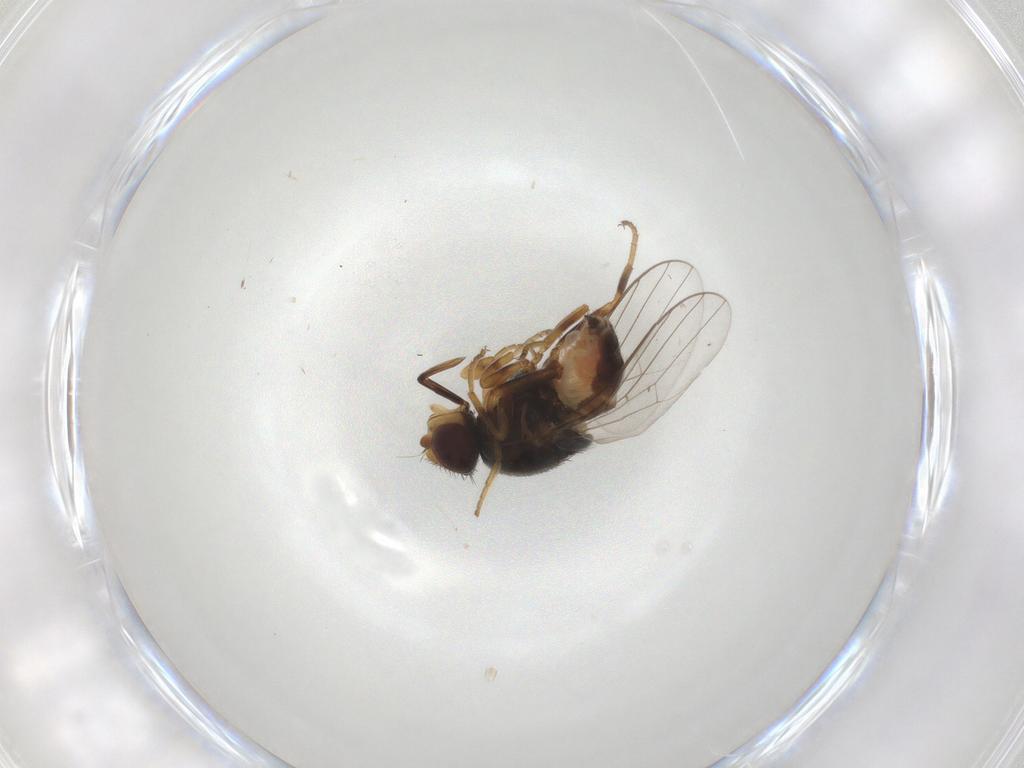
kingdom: Animalia
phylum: Arthropoda
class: Insecta
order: Diptera
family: Chloropidae
